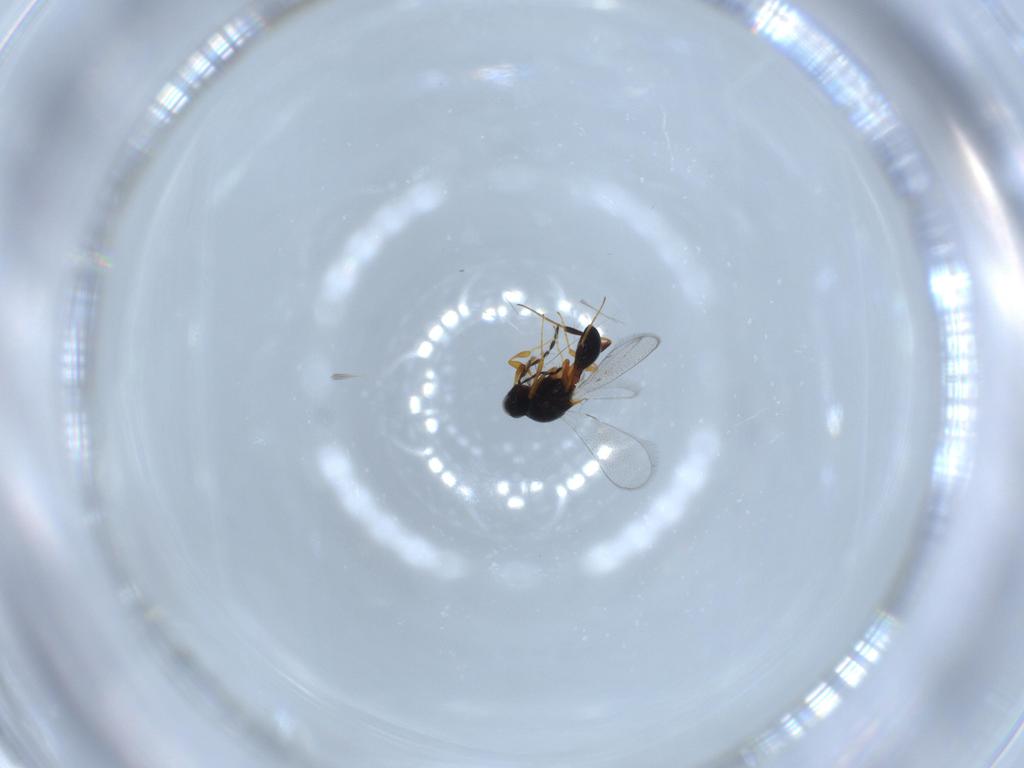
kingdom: Animalia
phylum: Arthropoda
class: Insecta
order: Hymenoptera
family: Platygastridae
